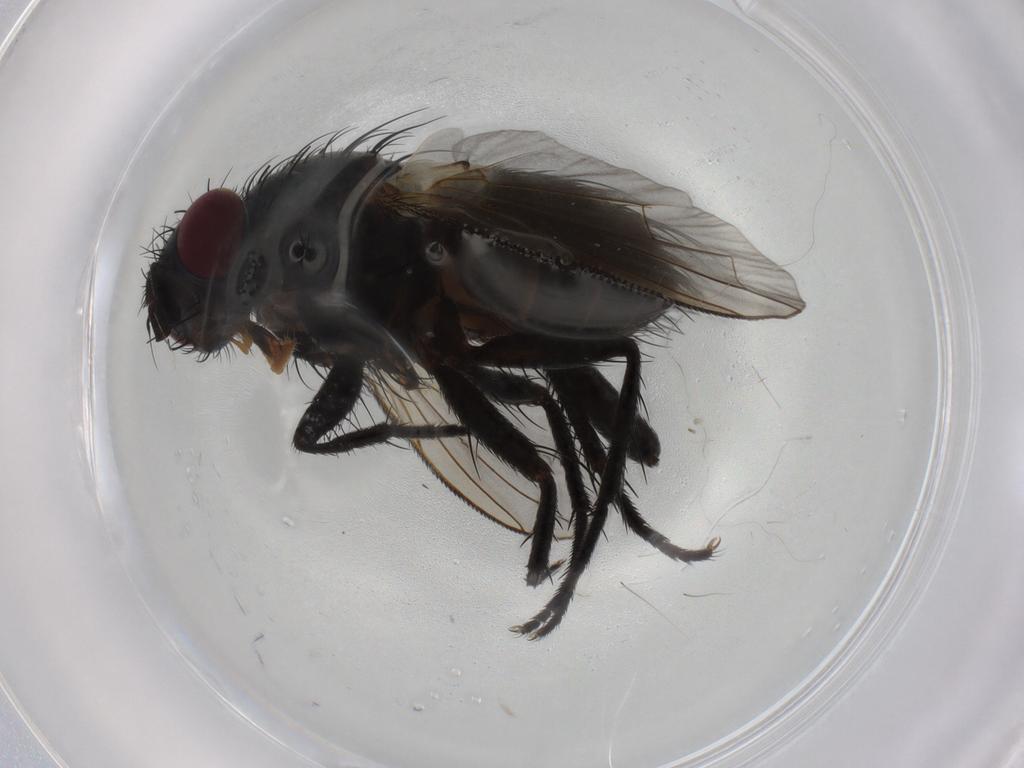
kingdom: Animalia
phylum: Arthropoda
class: Insecta
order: Diptera
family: Tachinidae
